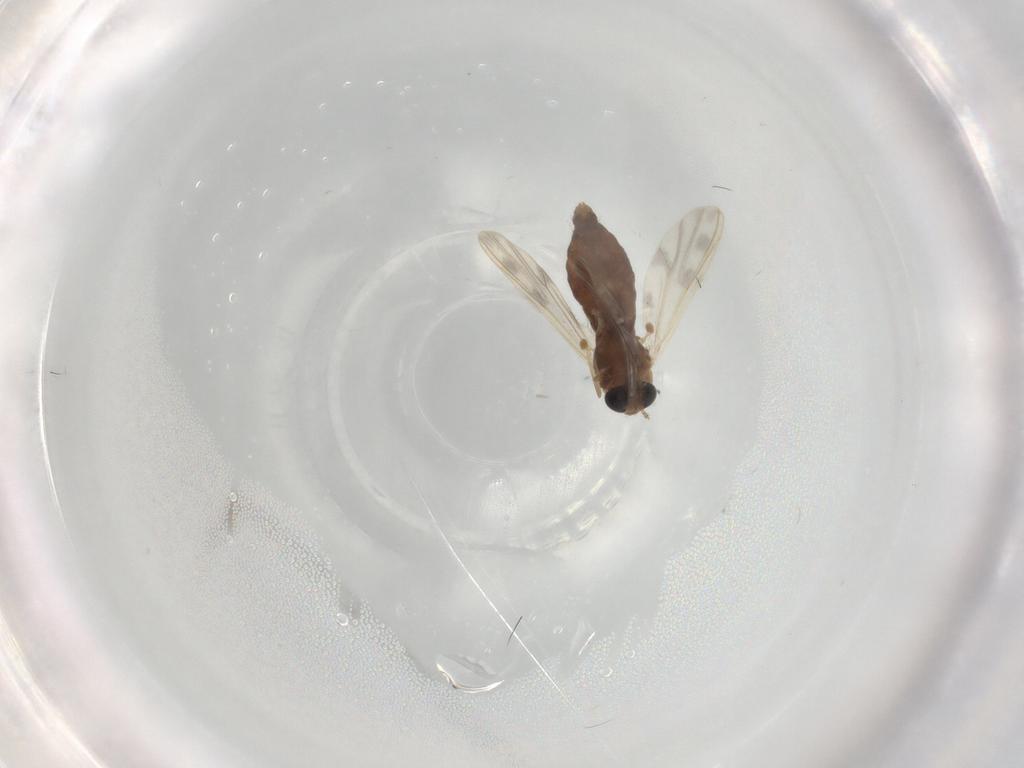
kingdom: Animalia
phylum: Arthropoda
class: Insecta
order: Diptera
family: Chironomidae
